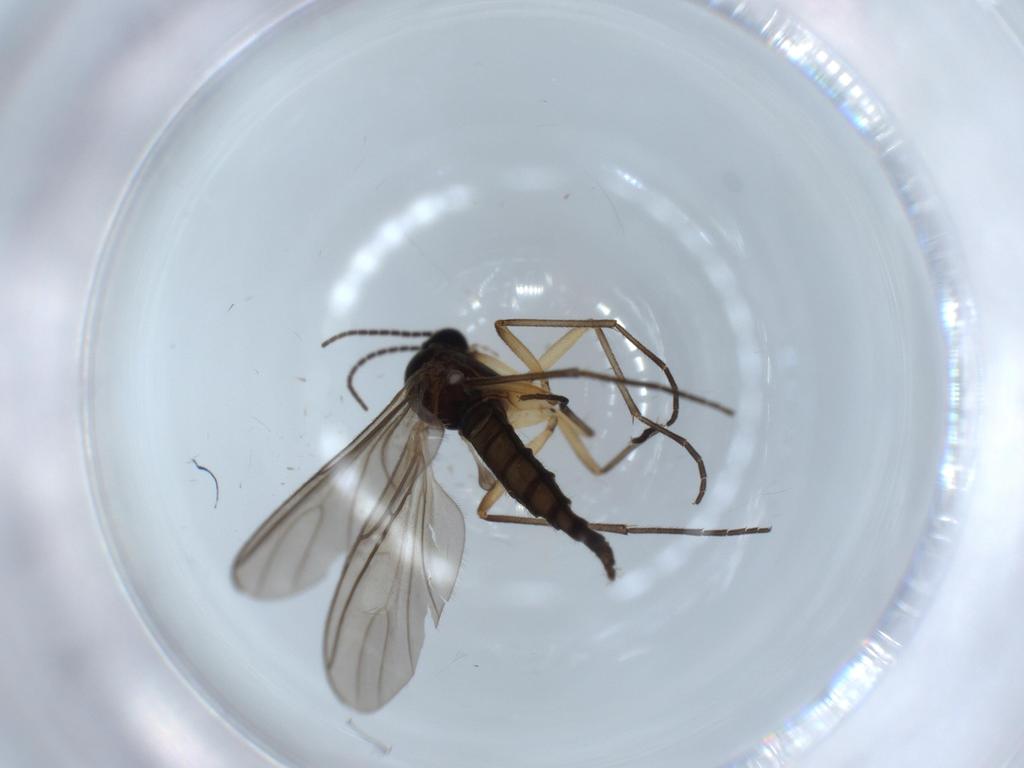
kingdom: Animalia
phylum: Arthropoda
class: Insecta
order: Diptera
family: Sciaridae
